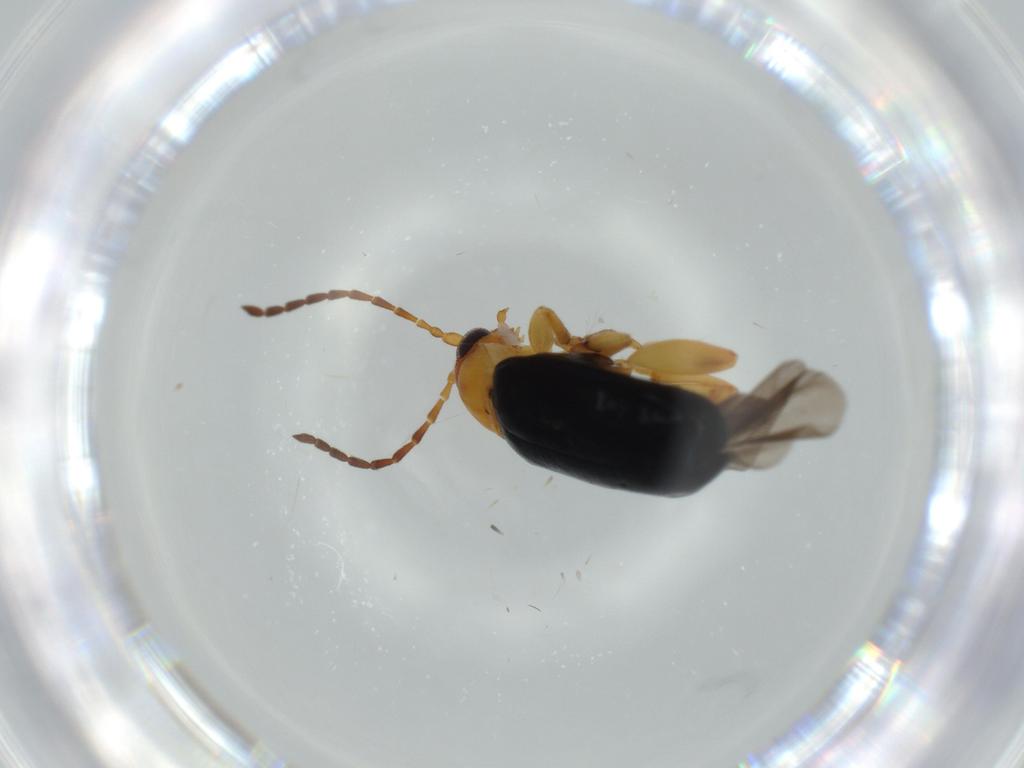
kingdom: Animalia
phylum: Arthropoda
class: Insecta
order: Coleoptera
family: Chrysomelidae
